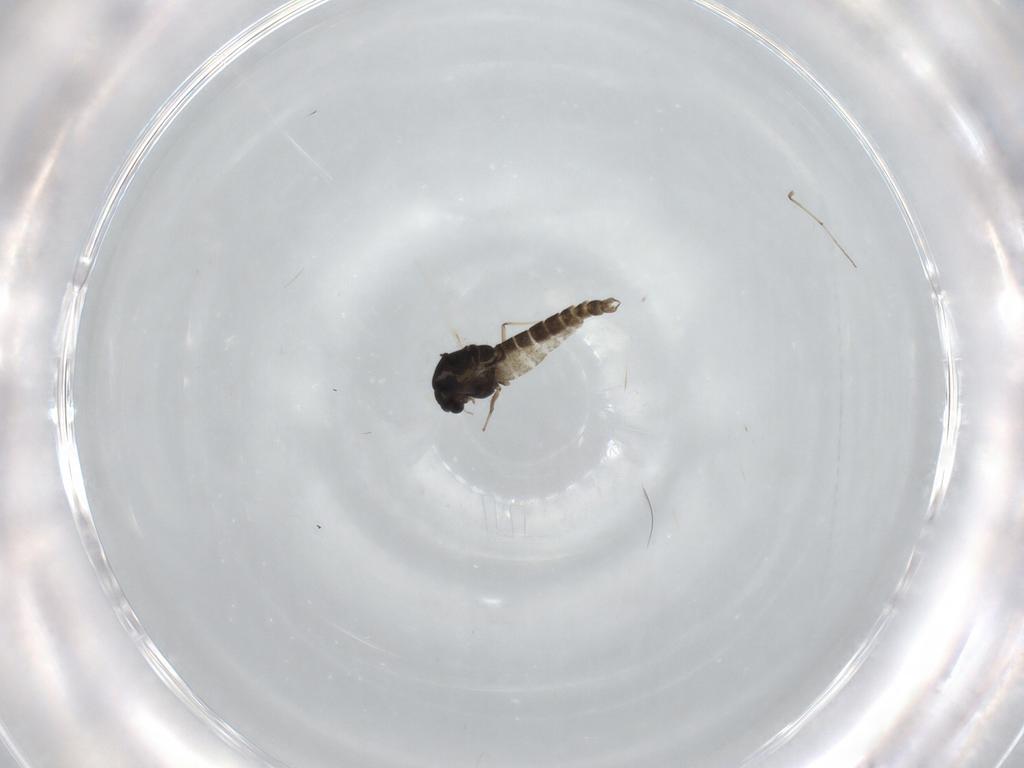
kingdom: Animalia
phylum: Arthropoda
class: Insecta
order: Diptera
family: Chironomidae
